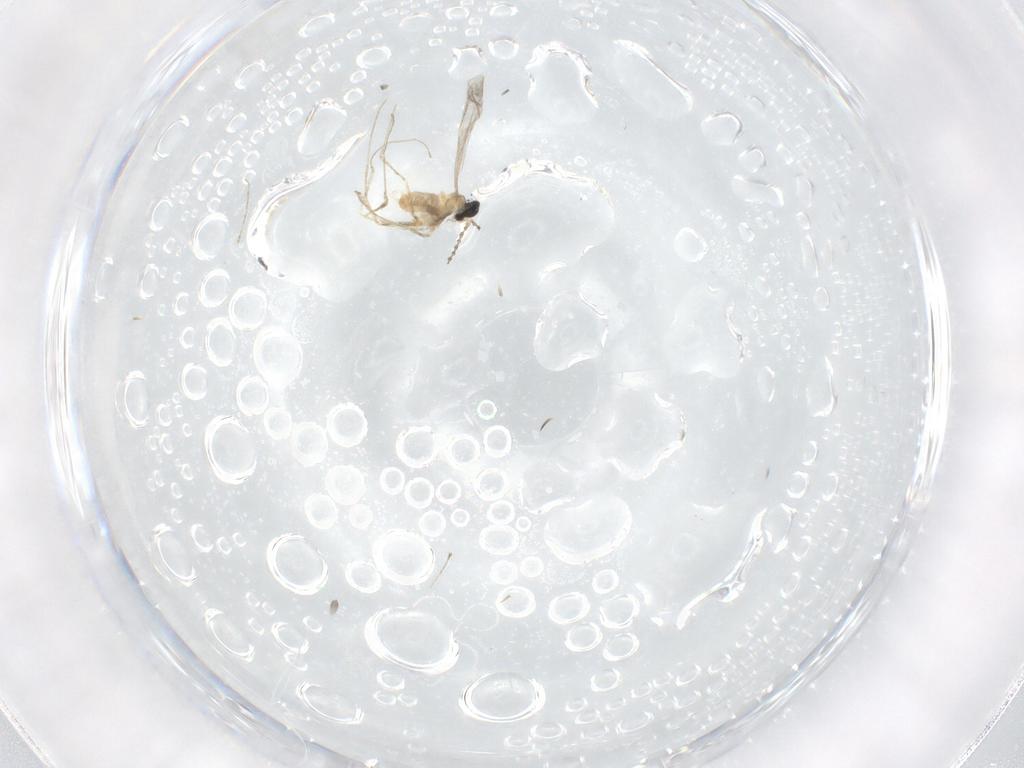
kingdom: Animalia
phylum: Arthropoda
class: Insecta
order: Diptera
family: Cecidomyiidae
